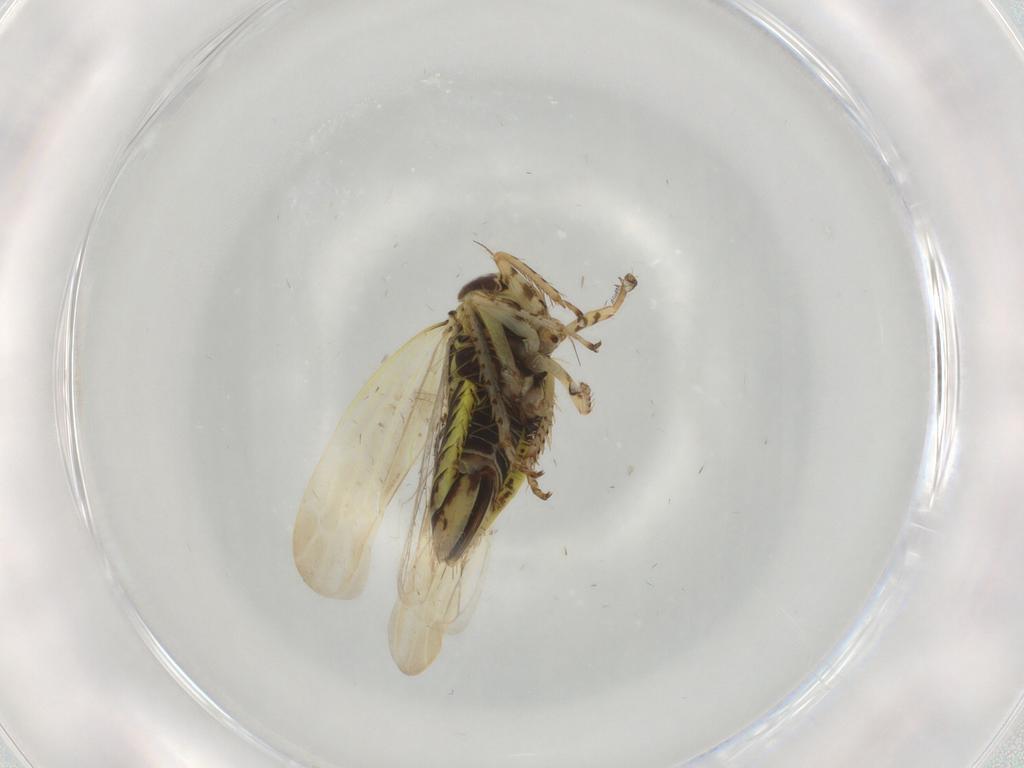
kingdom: Animalia
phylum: Arthropoda
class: Insecta
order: Hemiptera
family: Cicadellidae
